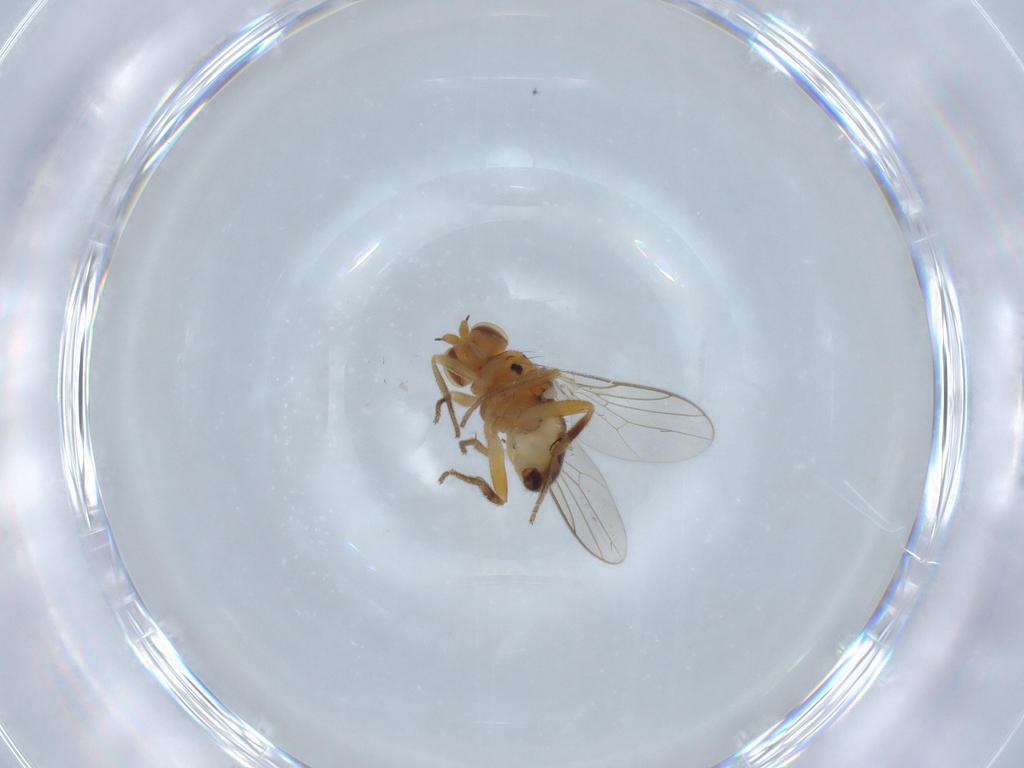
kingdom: Animalia
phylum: Arthropoda
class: Insecta
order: Diptera
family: Chloropidae
